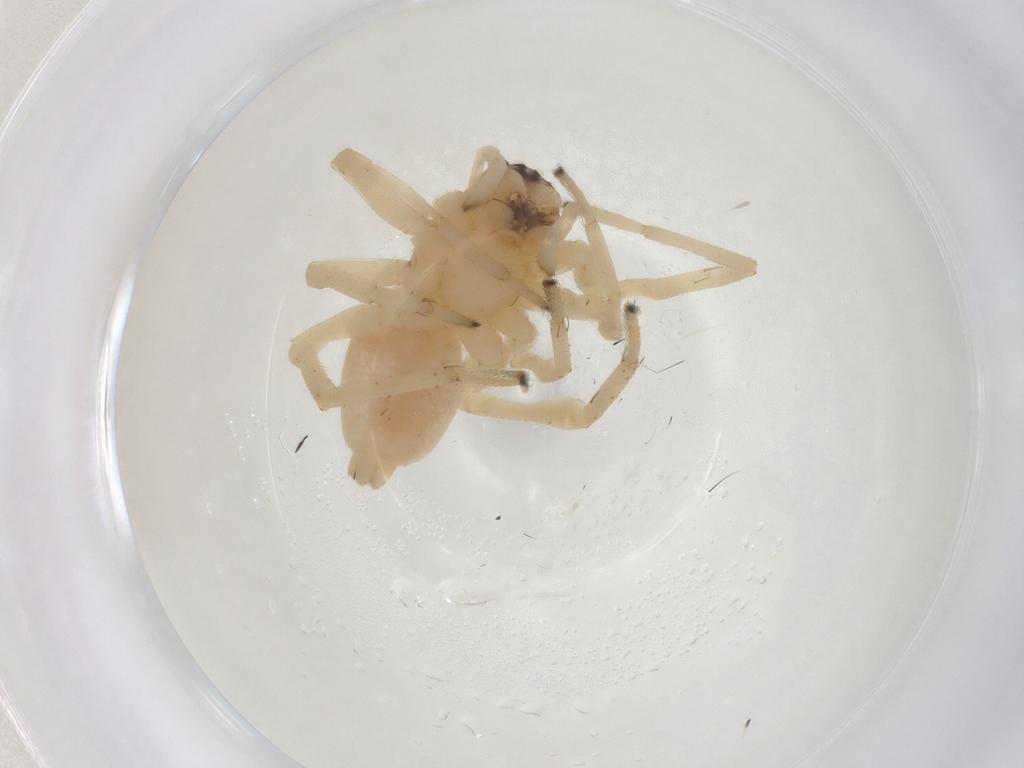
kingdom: Animalia
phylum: Arthropoda
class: Arachnida
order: Araneae
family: Cheiracanthiidae
